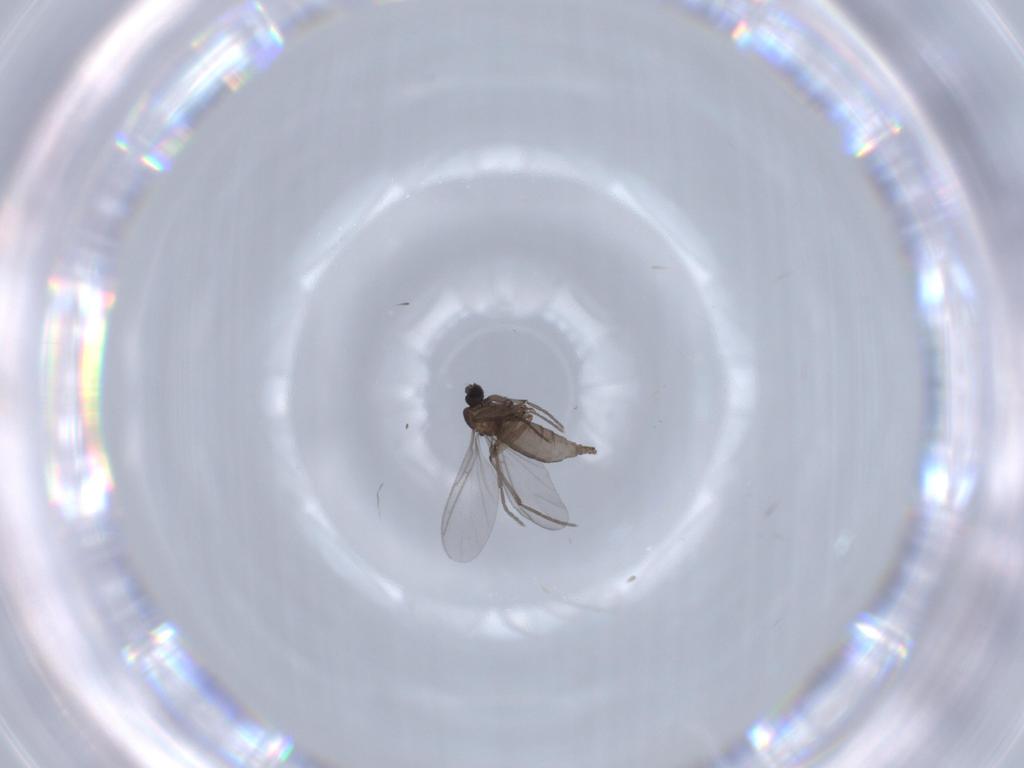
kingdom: Animalia
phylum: Arthropoda
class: Insecta
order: Diptera
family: Sciaridae
